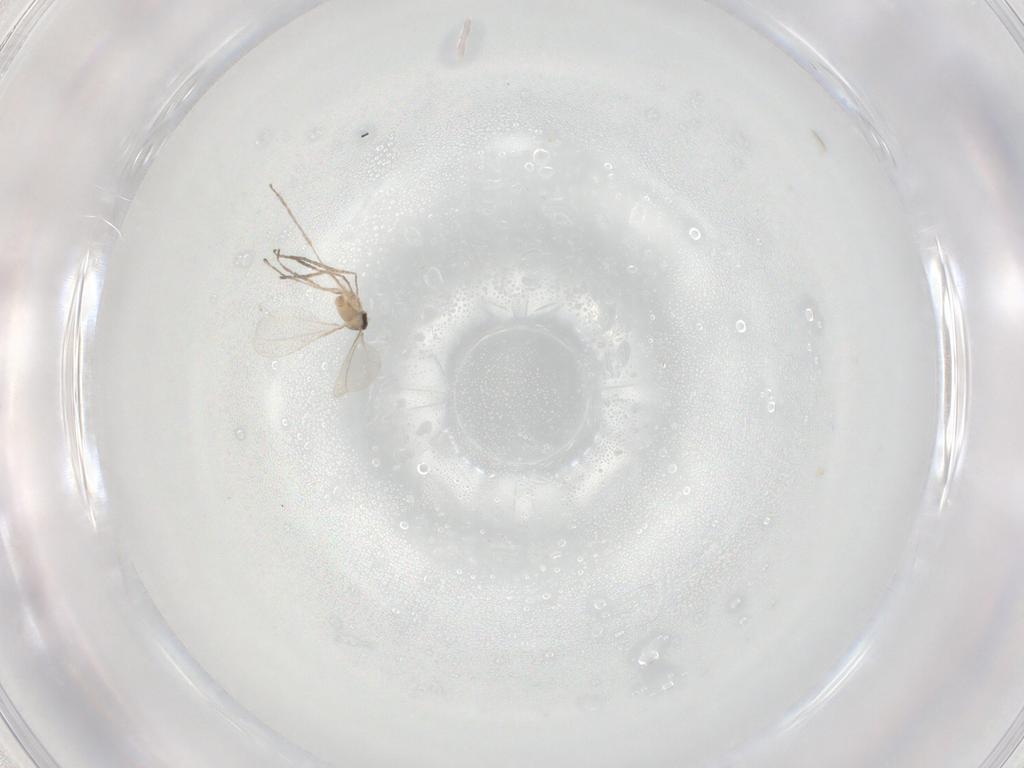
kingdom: Animalia
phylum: Arthropoda
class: Insecta
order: Diptera
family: Cecidomyiidae
